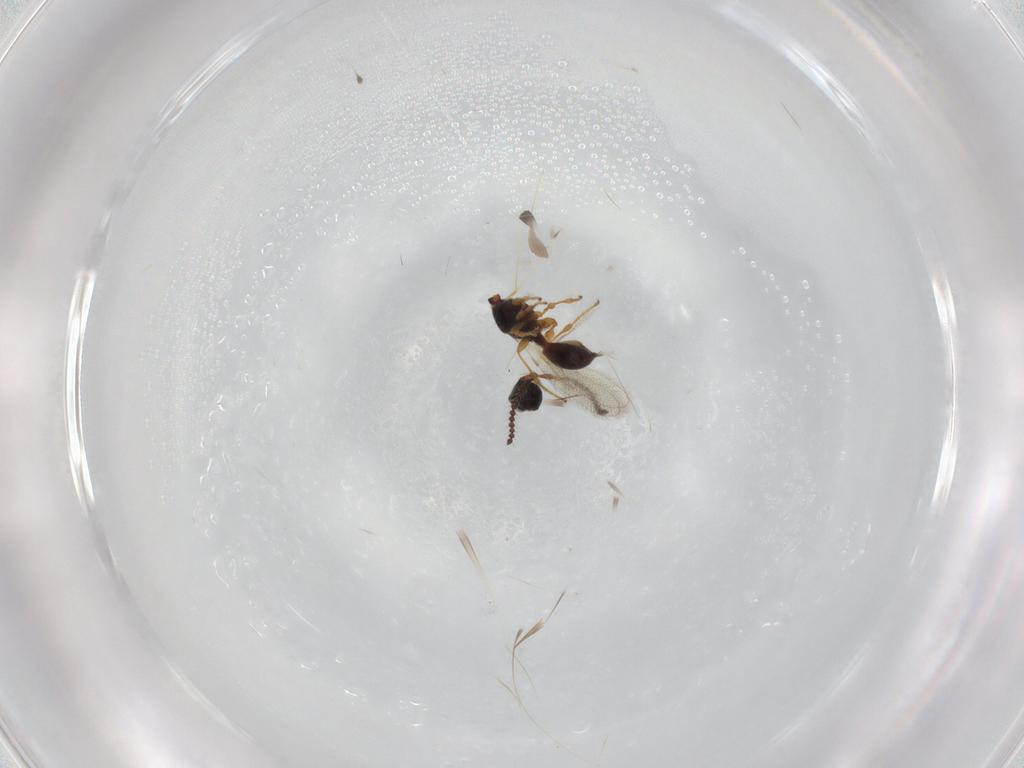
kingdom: Animalia
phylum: Arthropoda
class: Insecta
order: Hymenoptera
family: Diapriidae
